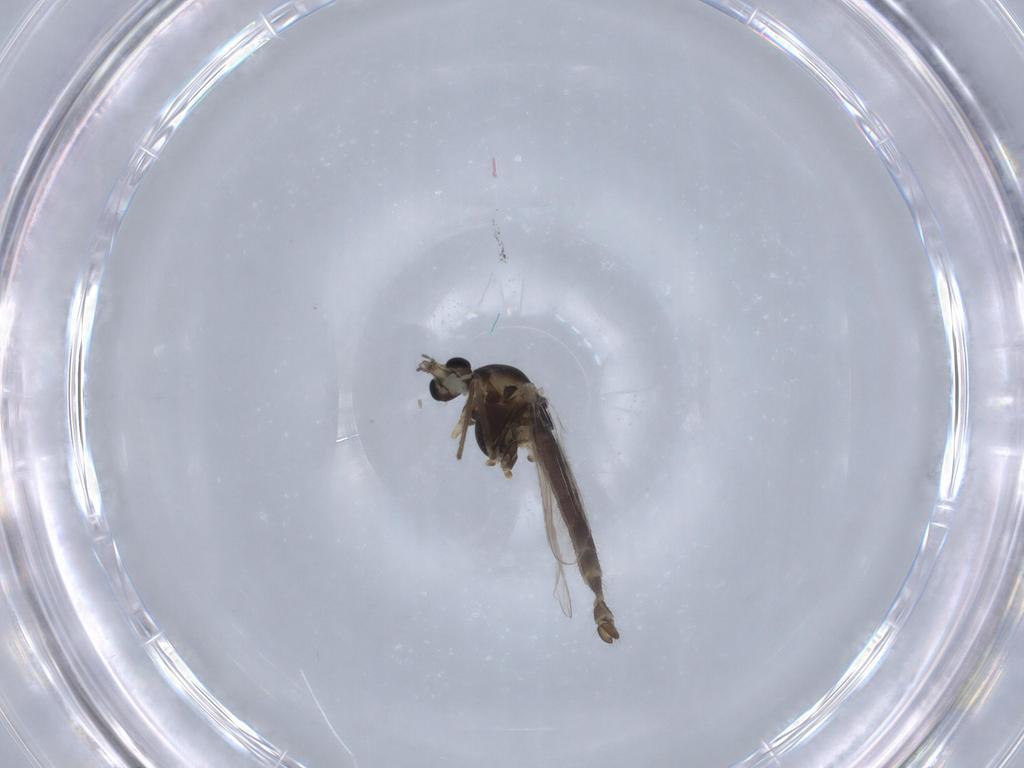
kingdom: Animalia
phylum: Arthropoda
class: Insecta
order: Diptera
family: Chironomidae
